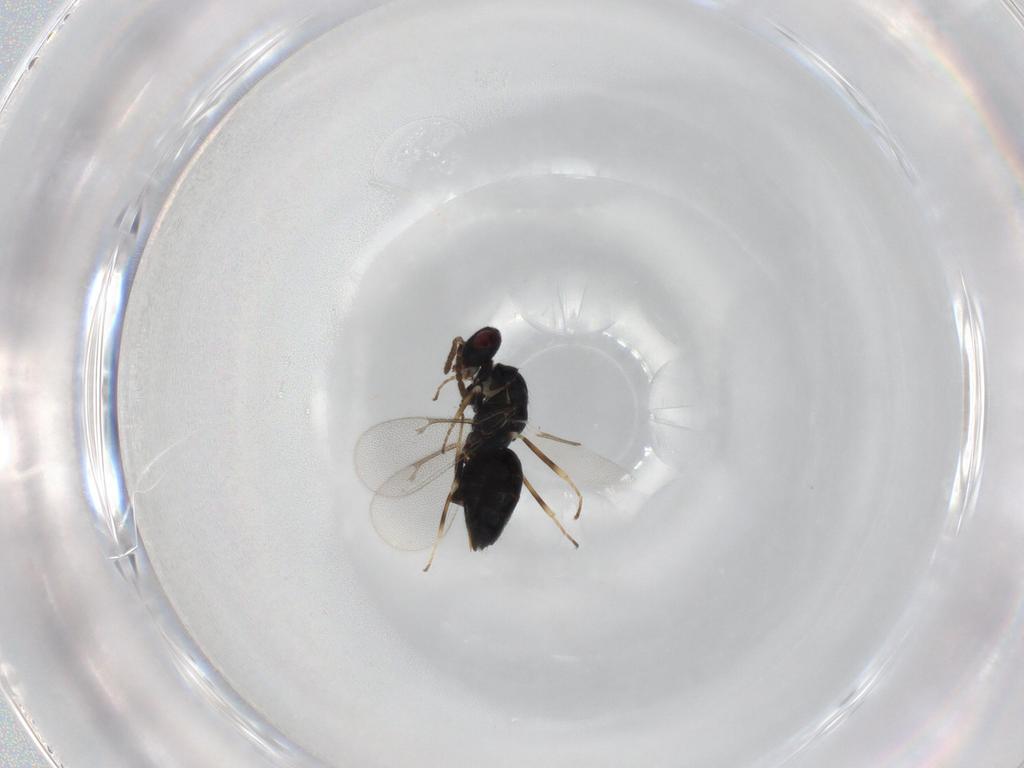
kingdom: Animalia
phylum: Arthropoda
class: Insecta
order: Hymenoptera
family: Eulophidae
